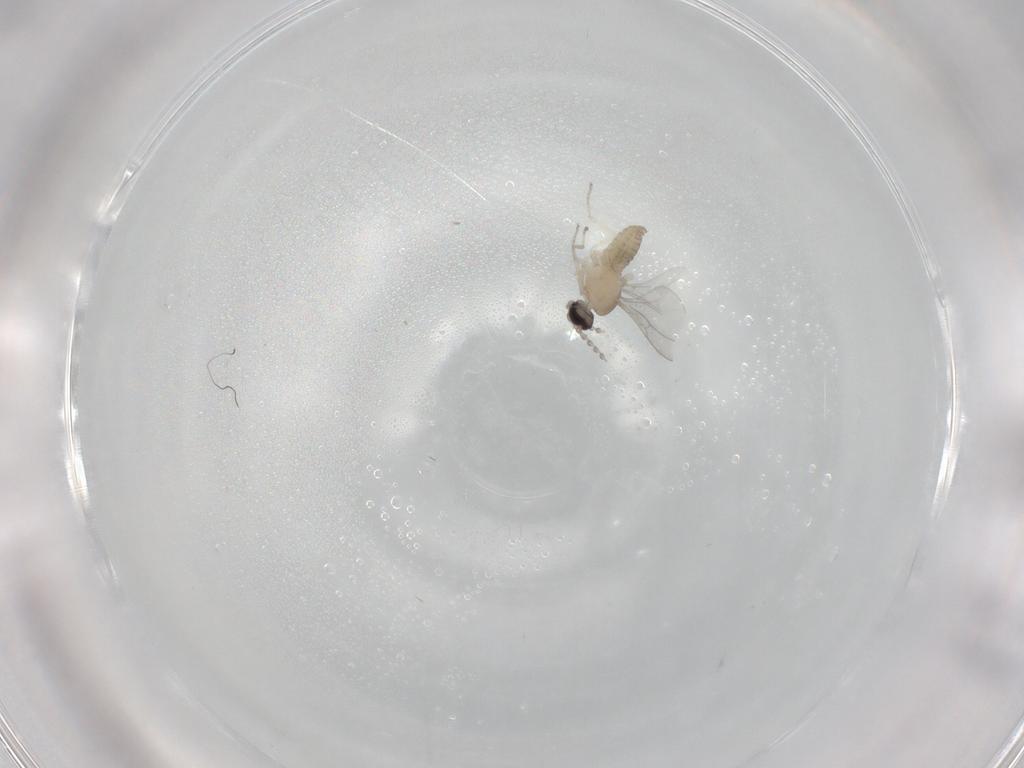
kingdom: Animalia
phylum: Arthropoda
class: Insecta
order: Diptera
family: Cecidomyiidae
